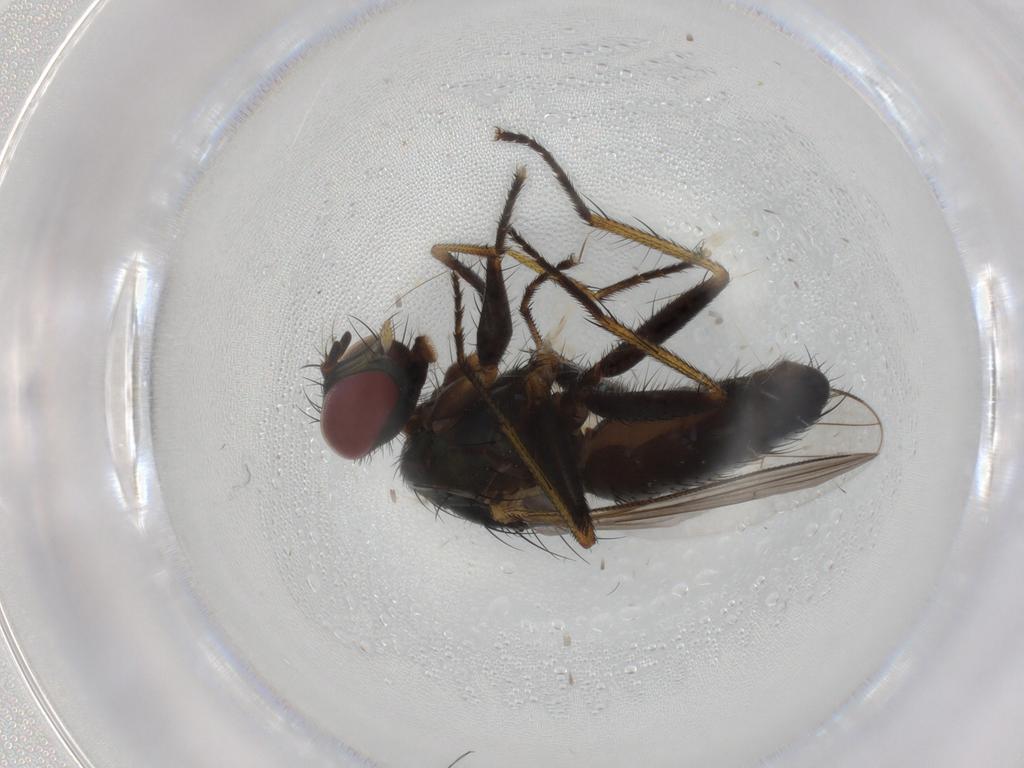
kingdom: Animalia
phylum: Arthropoda
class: Insecta
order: Diptera
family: Muscidae
